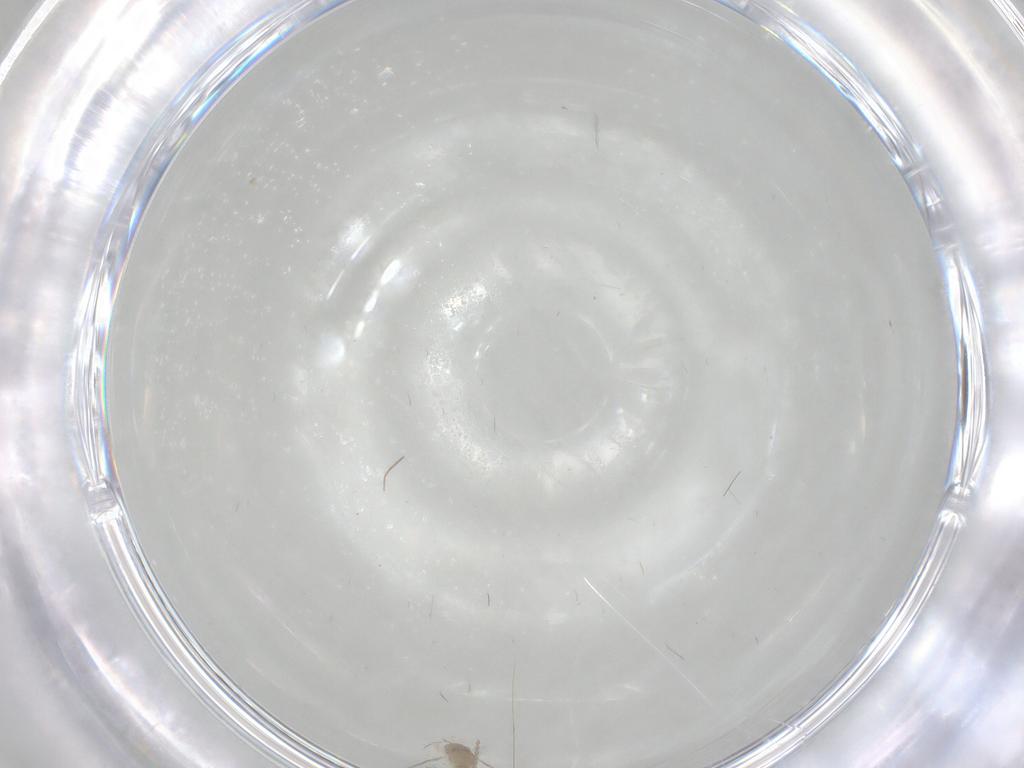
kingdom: Animalia
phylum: Arthropoda
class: Insecta
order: Diptera
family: Cecidomyiidae
